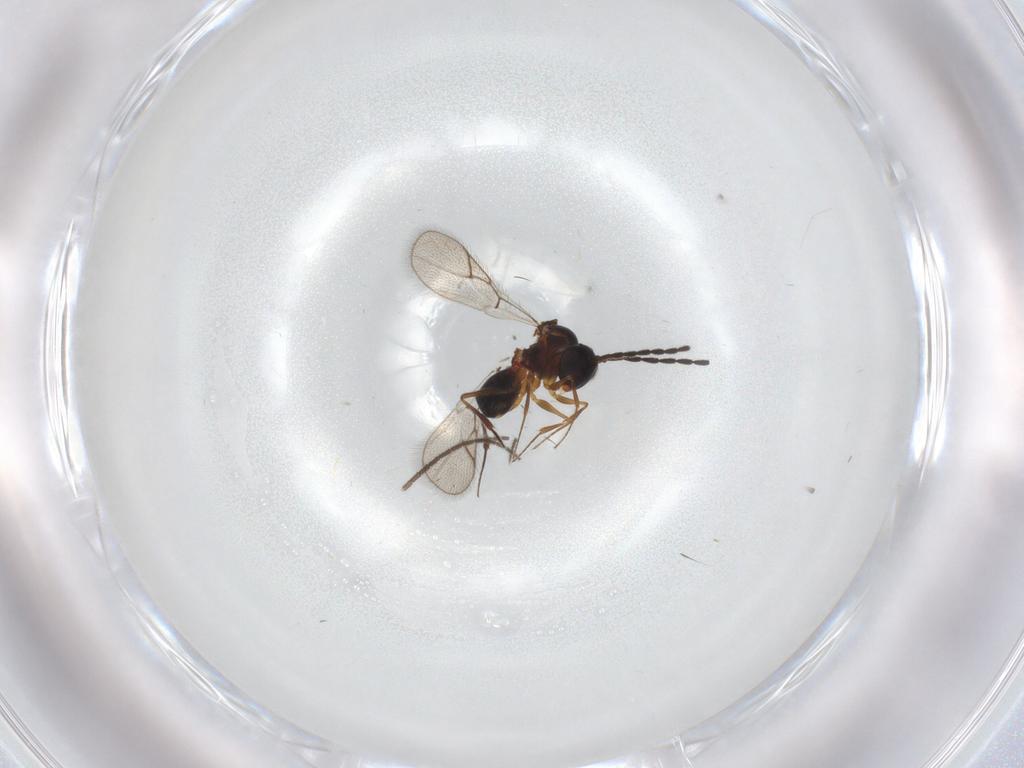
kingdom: Animalia
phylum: Arthropoda
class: Insecta
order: Hymenoptera
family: Figitidae
